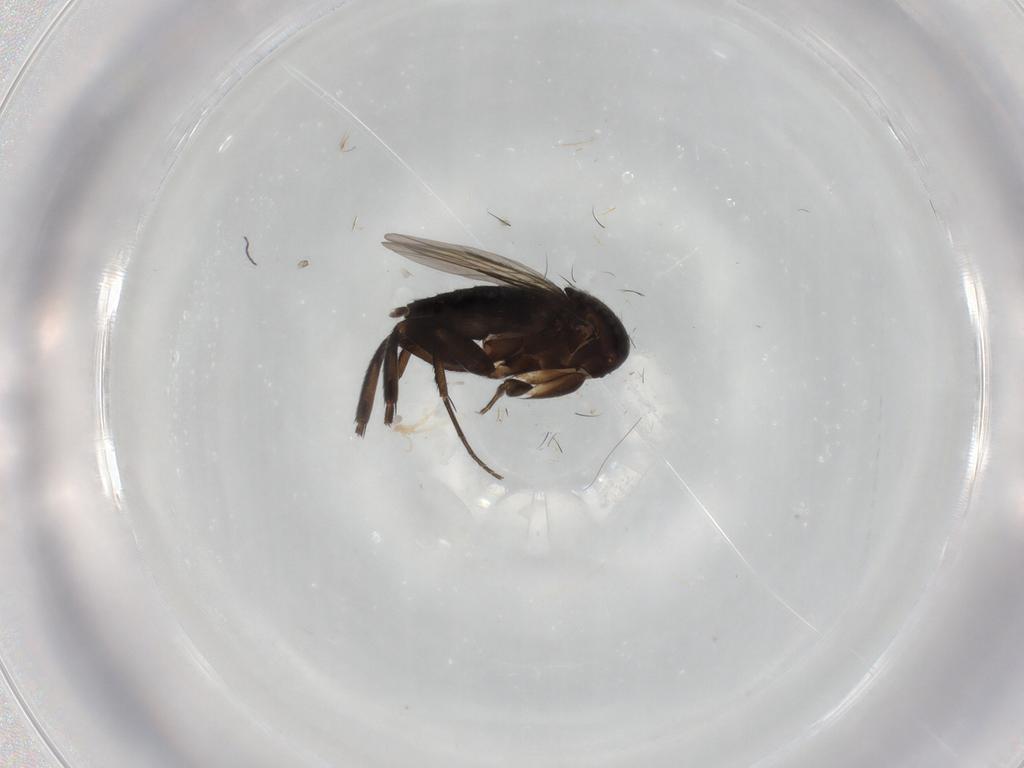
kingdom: Animalia
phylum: Arthropoda
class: Insecta
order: Diptera
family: Phoridae
